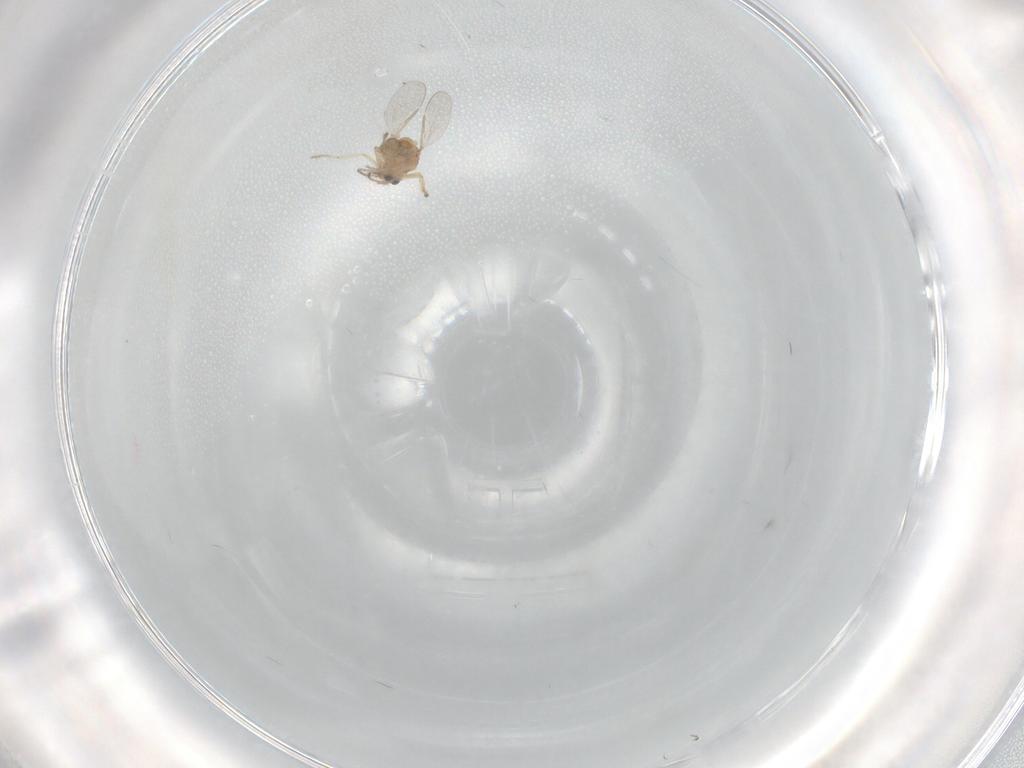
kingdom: Animalia
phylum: Arthropoda
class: Insecta
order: Diptera
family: Ceratopogonidae
